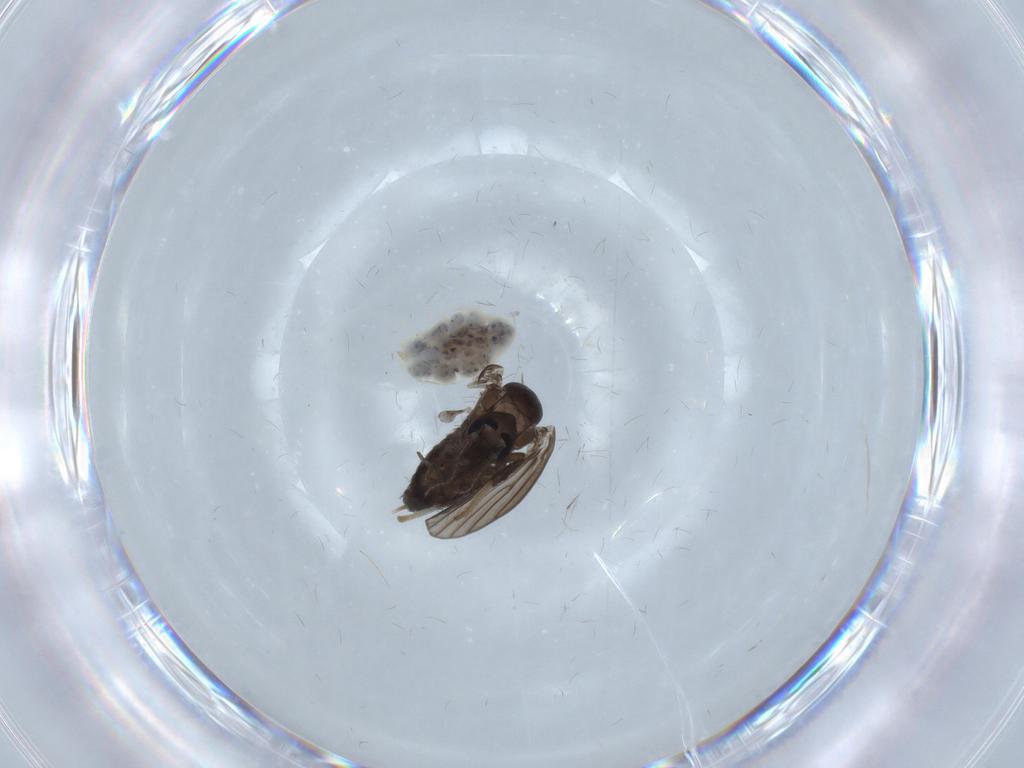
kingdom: Animalia
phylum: Arthropoda
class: Insecta
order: Diptera
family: Psychodidae
